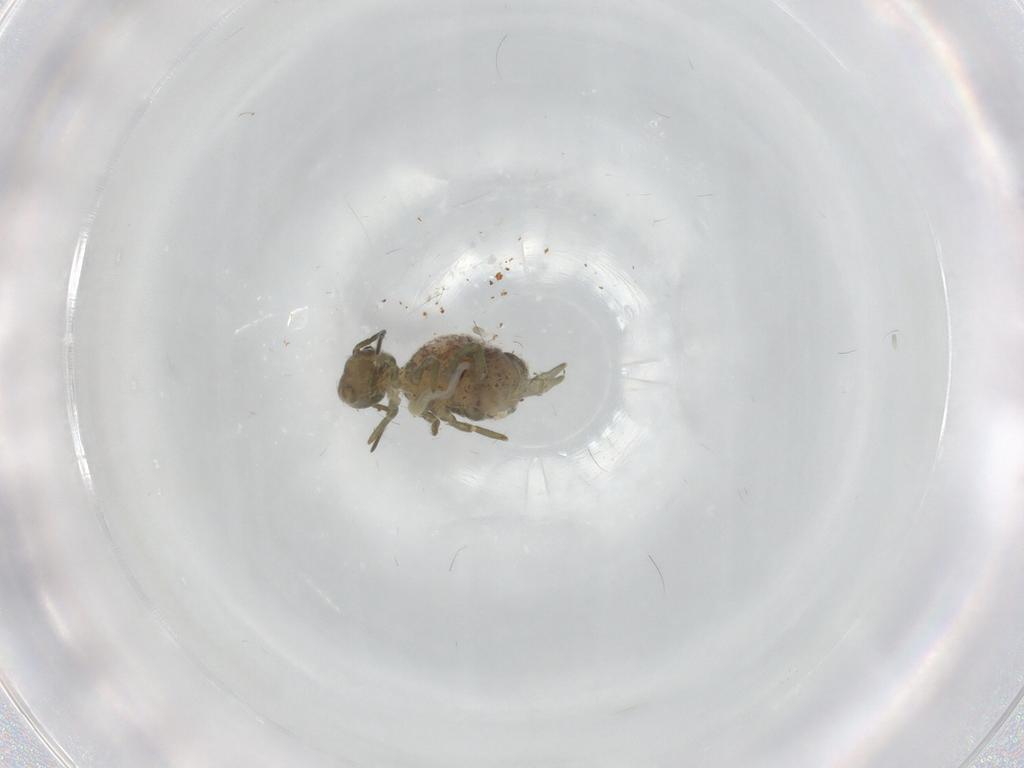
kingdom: Animalia
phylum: Arthropoda
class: Collembola
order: Symphypleona
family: Sminthuridae
